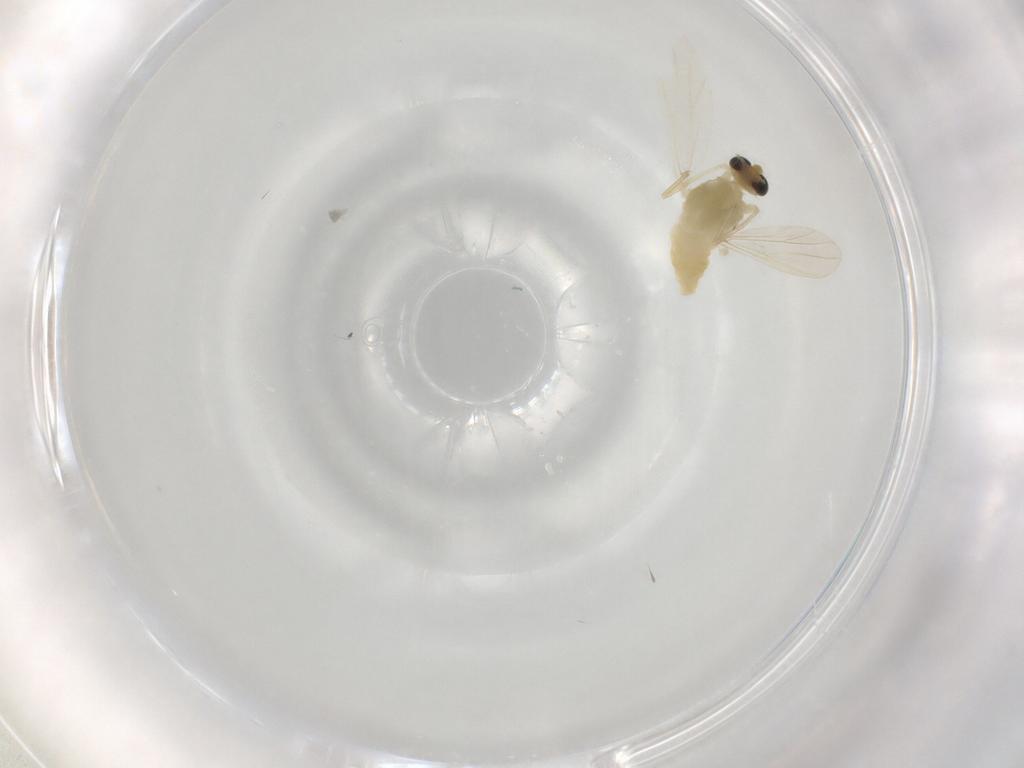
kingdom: Animalia
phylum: Arthropoda
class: Insecta
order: Diptera
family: Chironomidae
